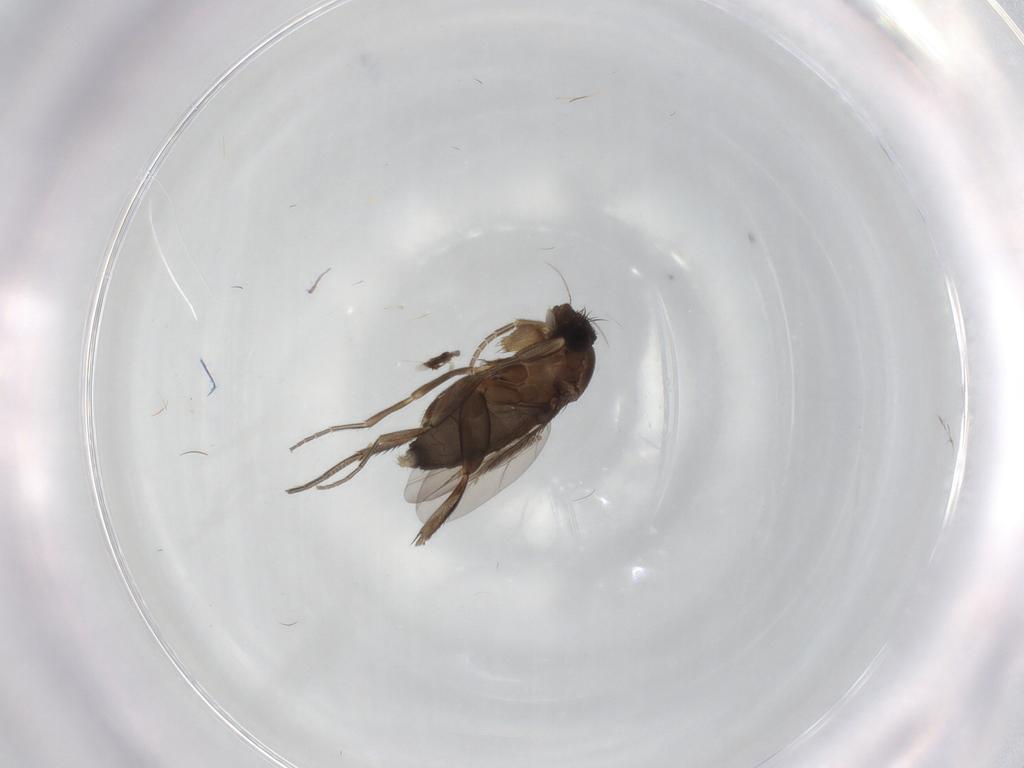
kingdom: Animalia
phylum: Arthropoda
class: Insecta
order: Diptera
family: Phoridae
